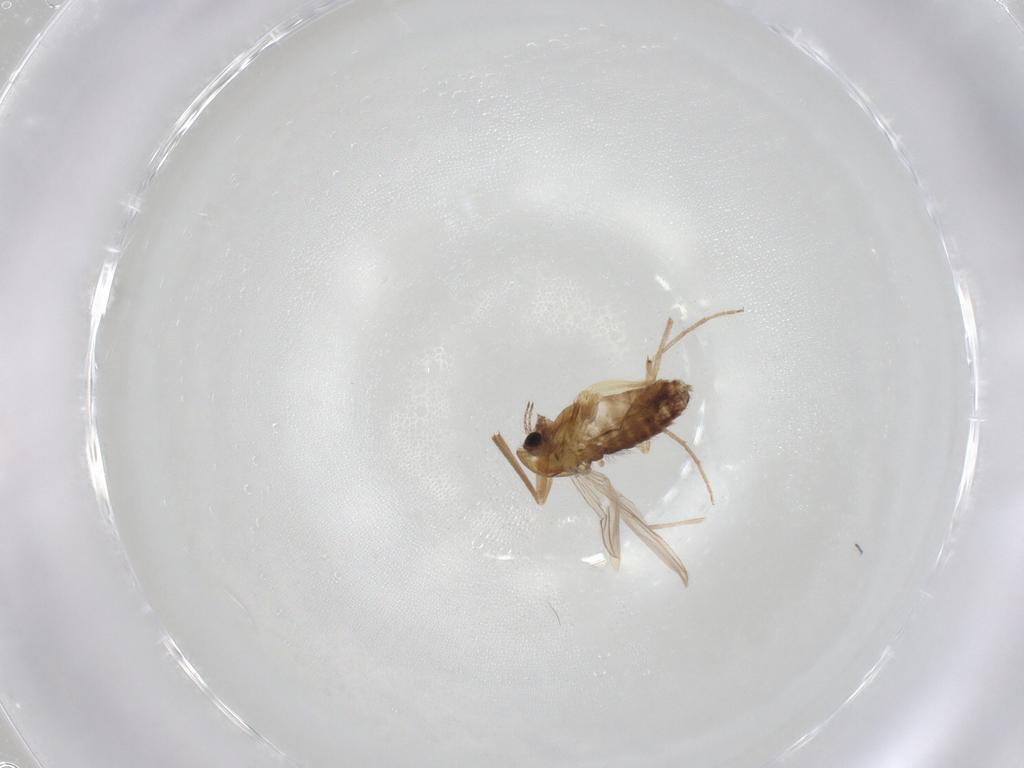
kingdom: Animalia
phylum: Arthropoda
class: Insecta
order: Diptera
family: Chironomidae
